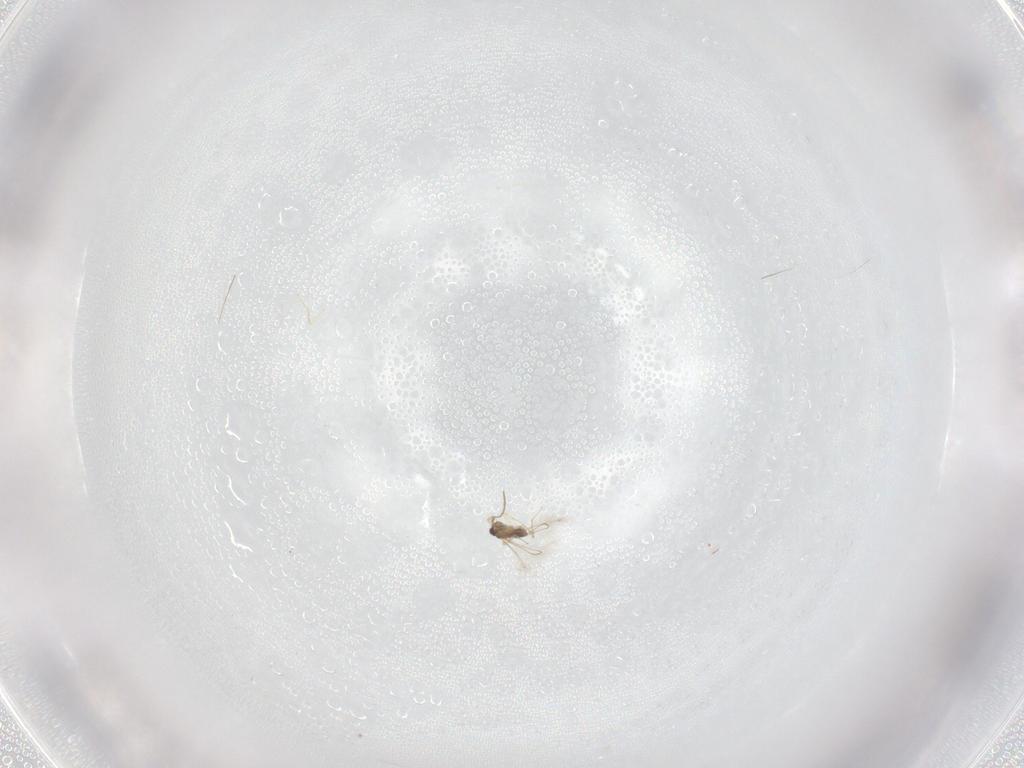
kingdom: Animalia
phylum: Arthropoda
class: Insecta
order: Hymenoptera
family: Mymaridae
